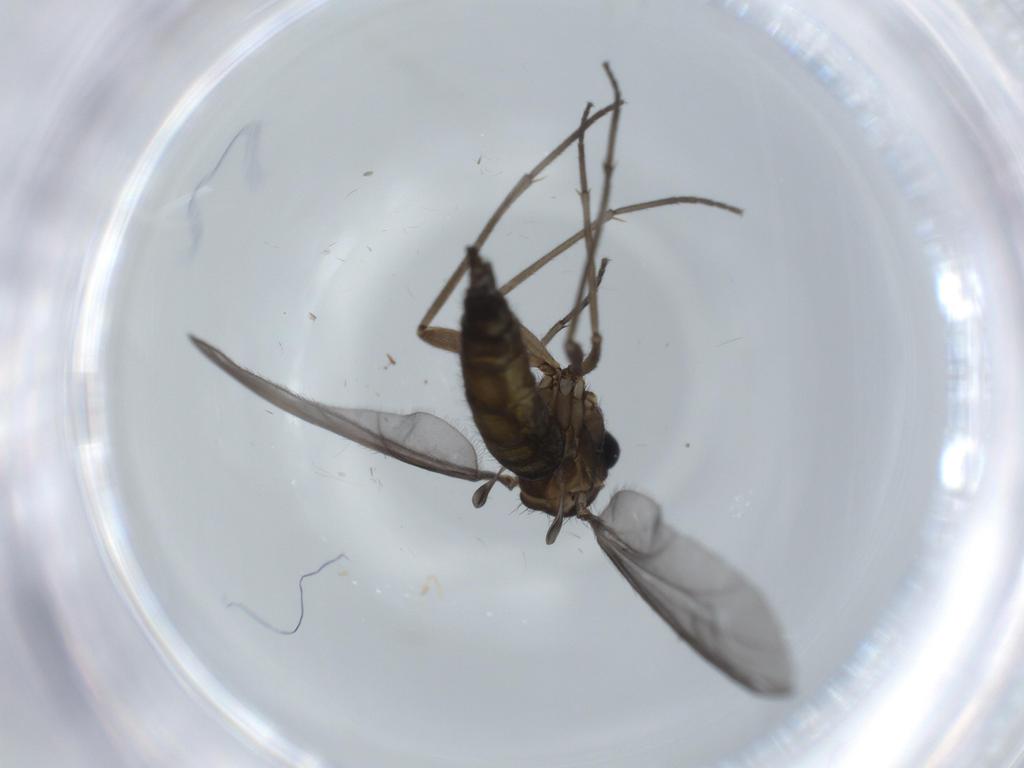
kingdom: Animalia
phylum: Arthropoda
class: Insecta
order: Diptera
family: Sciaridae
